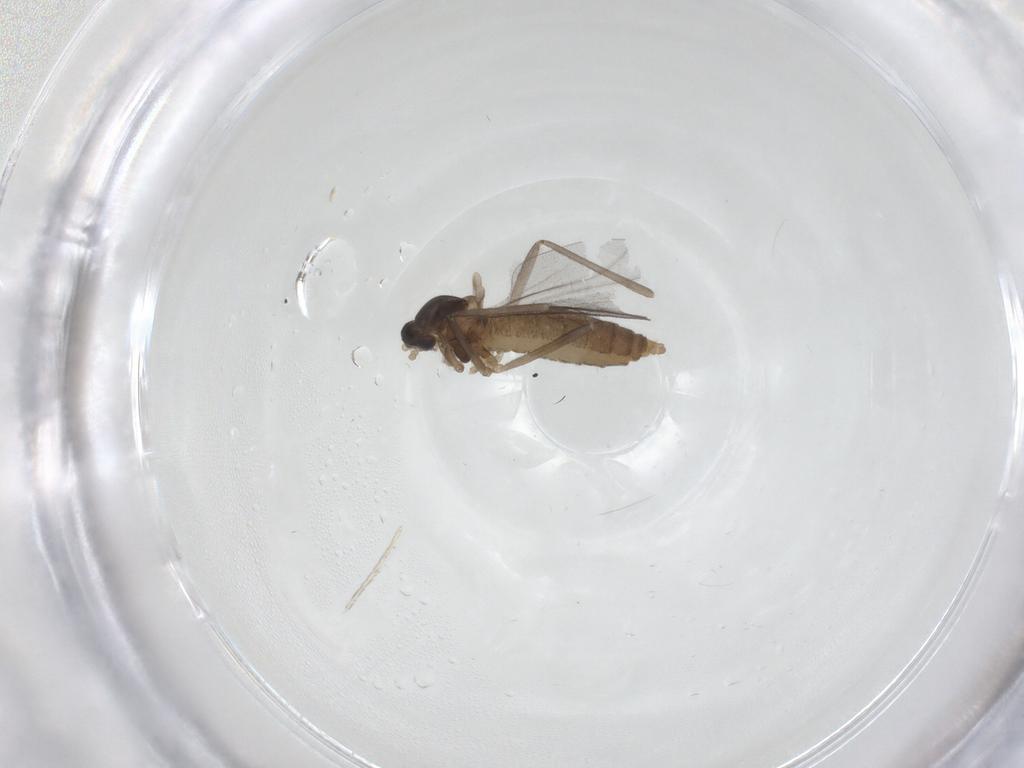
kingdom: Animalia
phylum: Arthropoda
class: Insecta
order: Diptera
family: Cecidomyiidae
